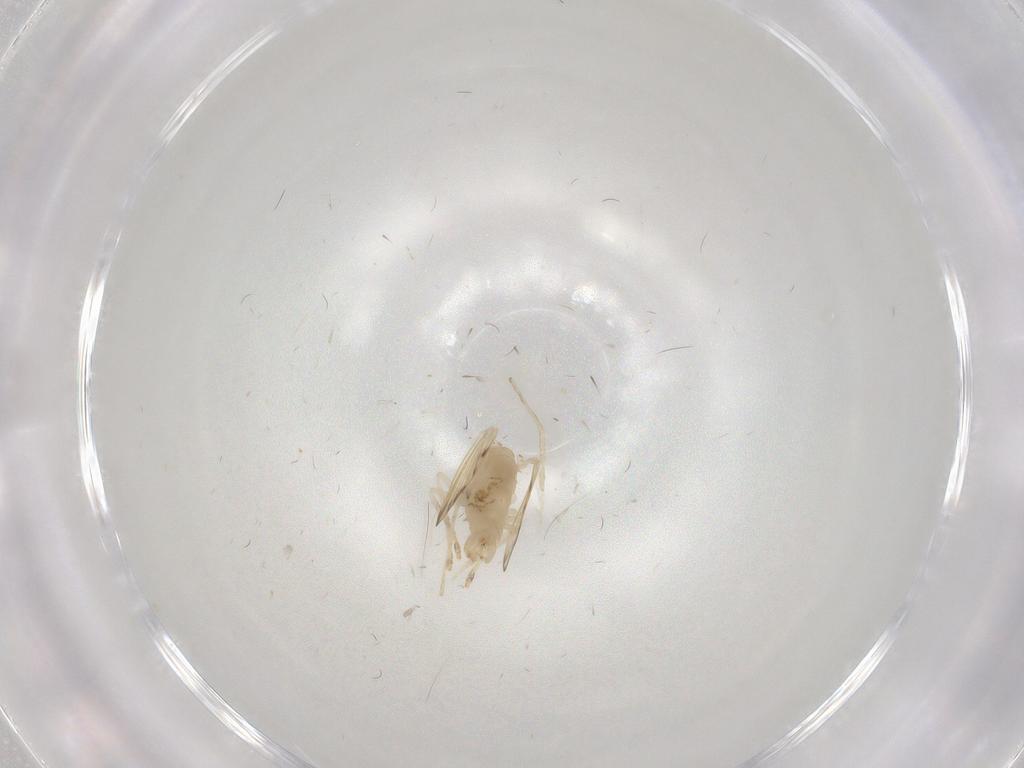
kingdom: Animalia
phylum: Arthropoda
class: Insecta
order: Diptera
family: Psychodidae
